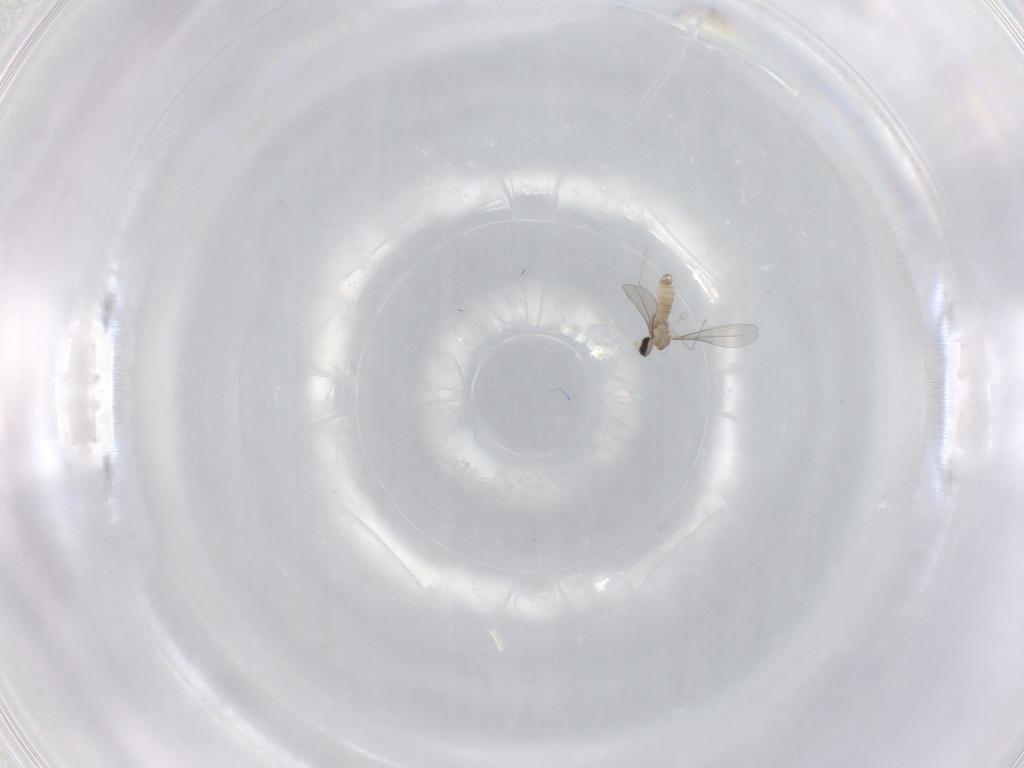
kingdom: Animalia
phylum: Arthropoda
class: Insecta
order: Diptera
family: Cecidomyiidae
